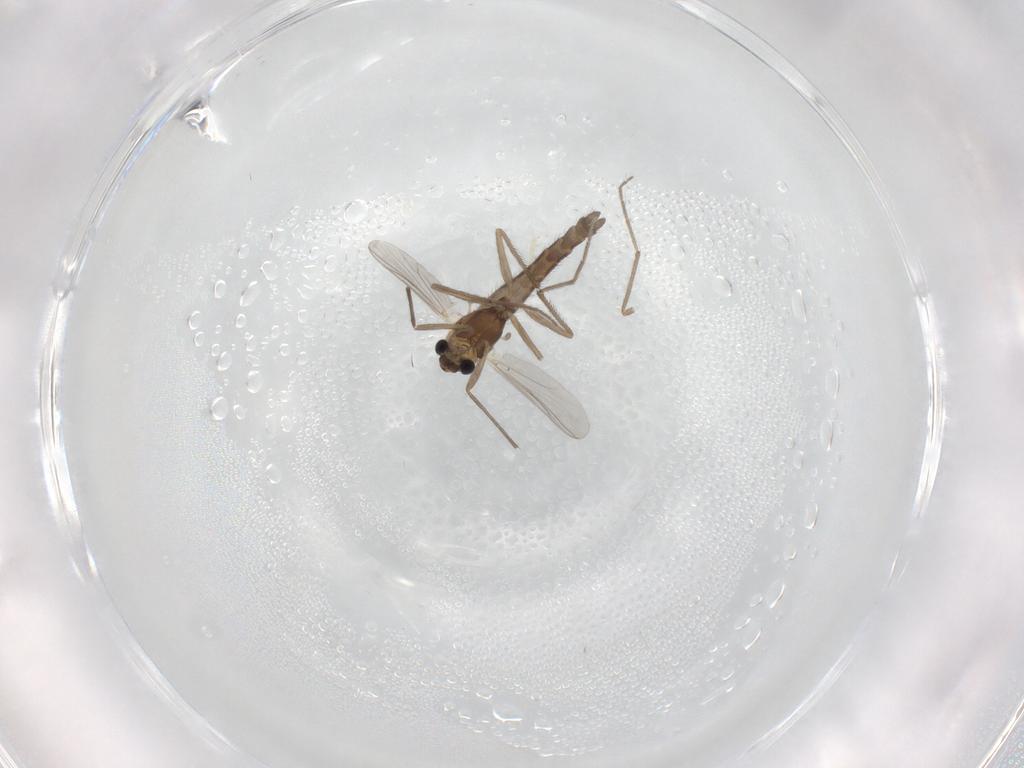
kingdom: Animalia
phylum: Arthropoda
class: Insecta
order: Diptera
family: Chironomidae
